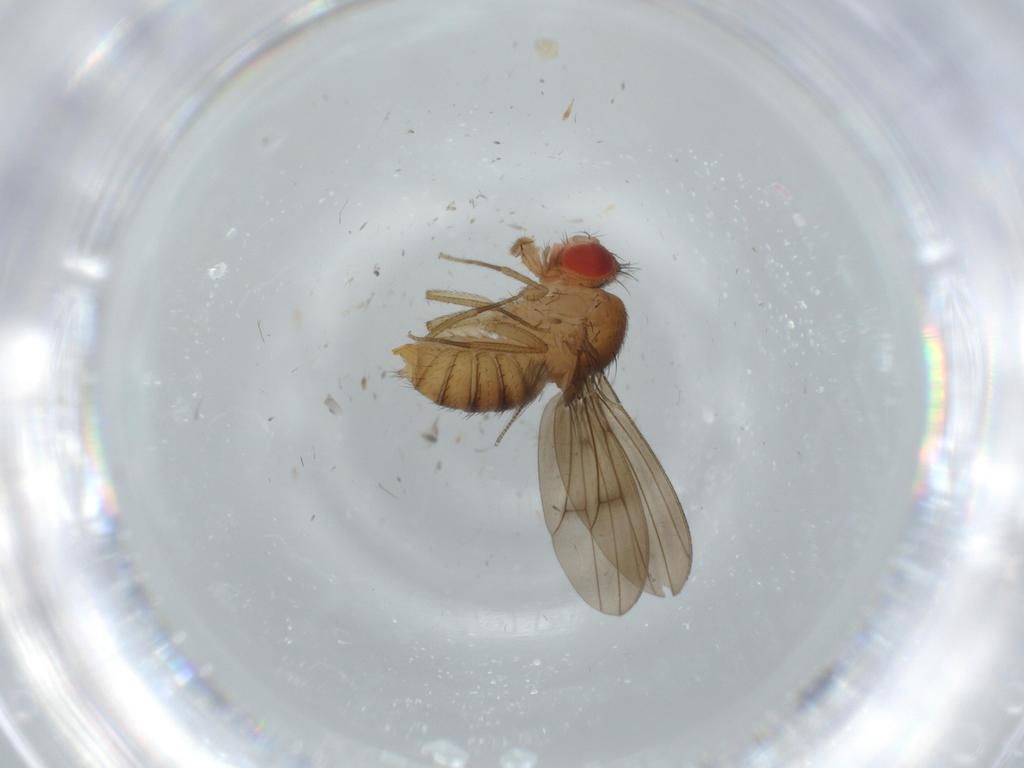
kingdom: Animalia
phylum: Arthropoda
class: Insecta
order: Diptera
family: Drosophilidae
